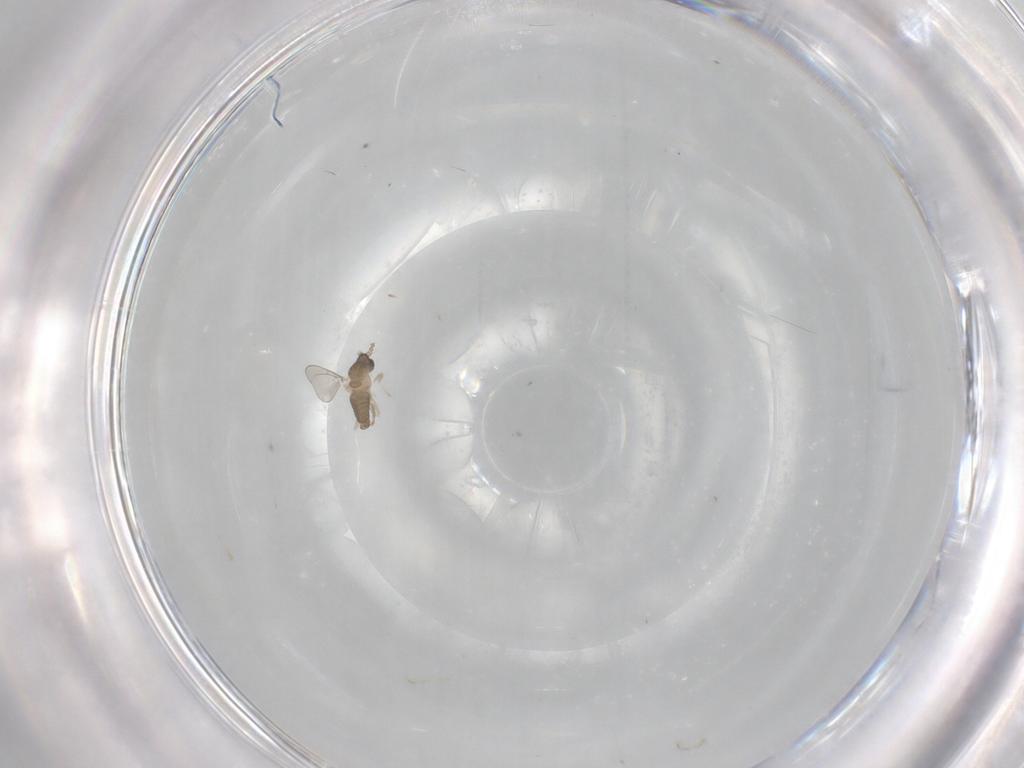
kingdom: Animalia
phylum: Arthropoda
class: Insecta
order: Diptera
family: Cecidomyiidae
